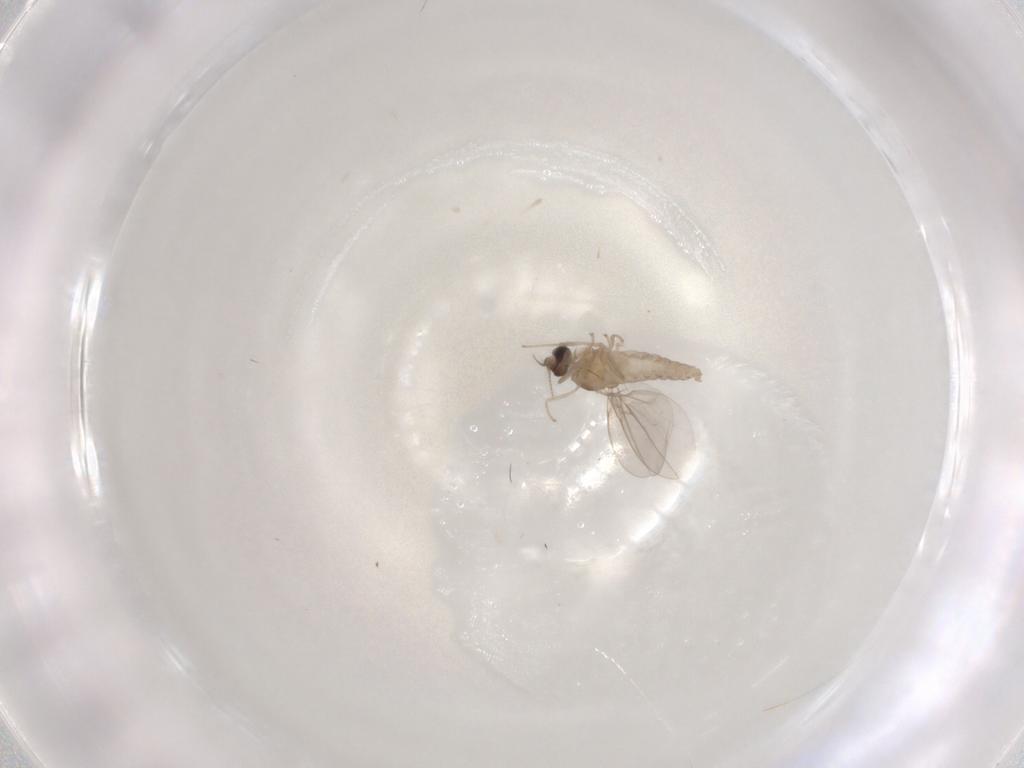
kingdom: Animalia
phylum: Arthropoda
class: Insecta
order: Diptera
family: Cecidomyiidae
